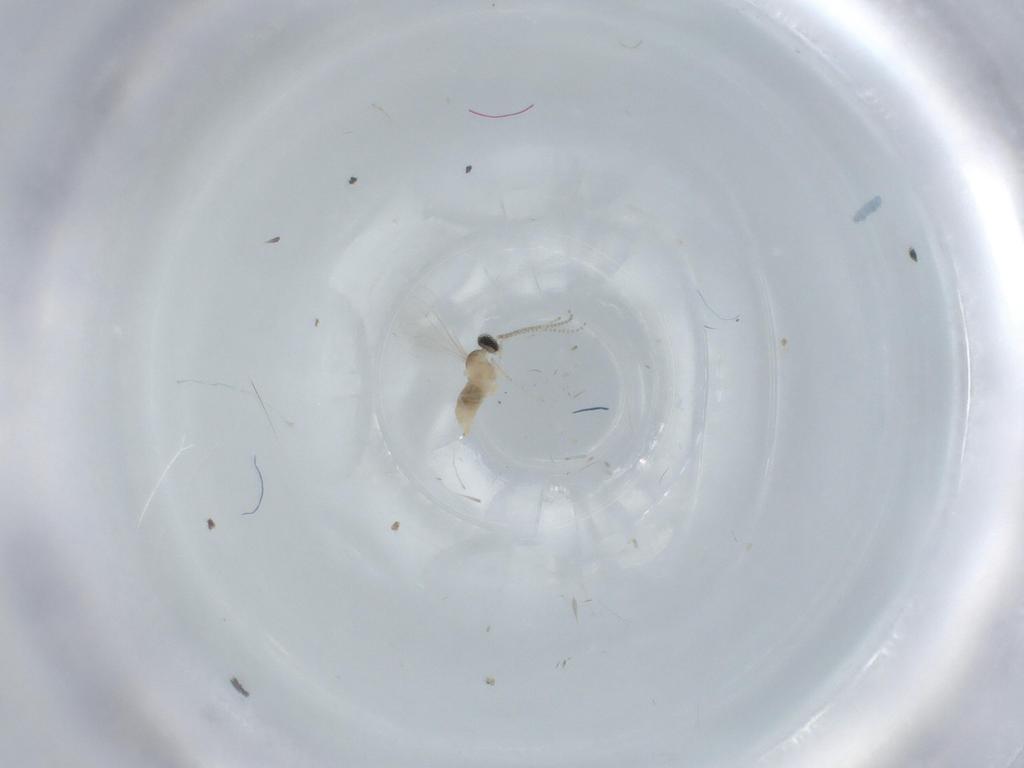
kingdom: Animalia
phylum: Arthropoda
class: Insecta
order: Diptera
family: Cecidomyiidae
